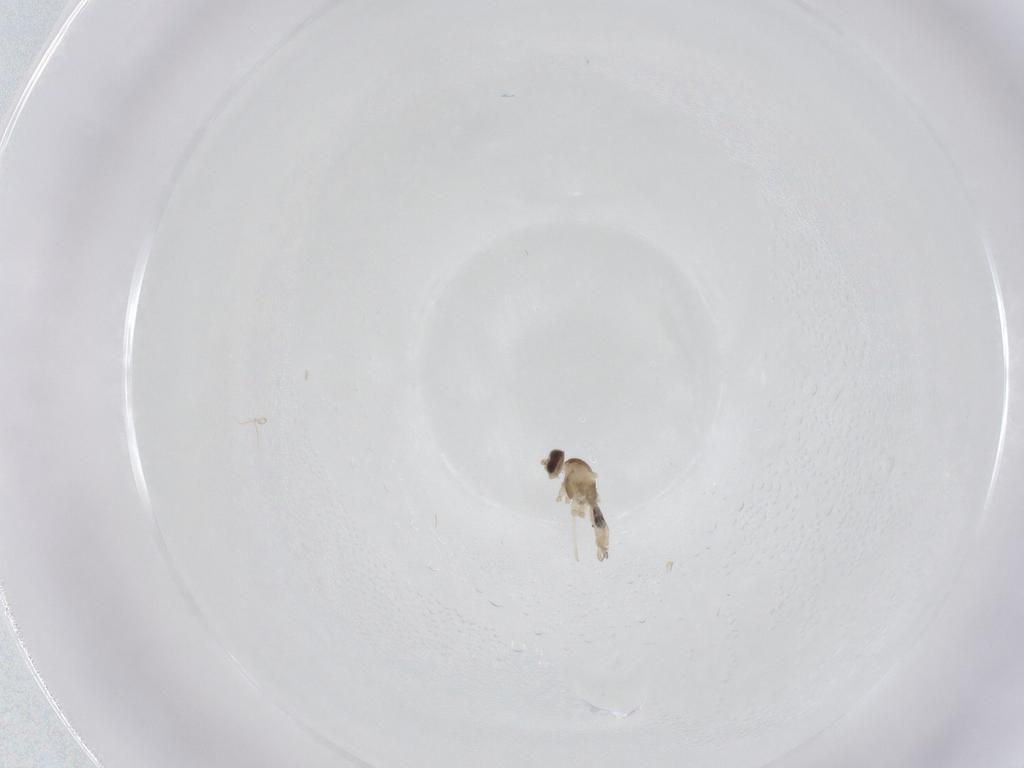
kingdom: Animalia
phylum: Arthropoda
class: Insecta
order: Diptera
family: Cecidomyiidae
